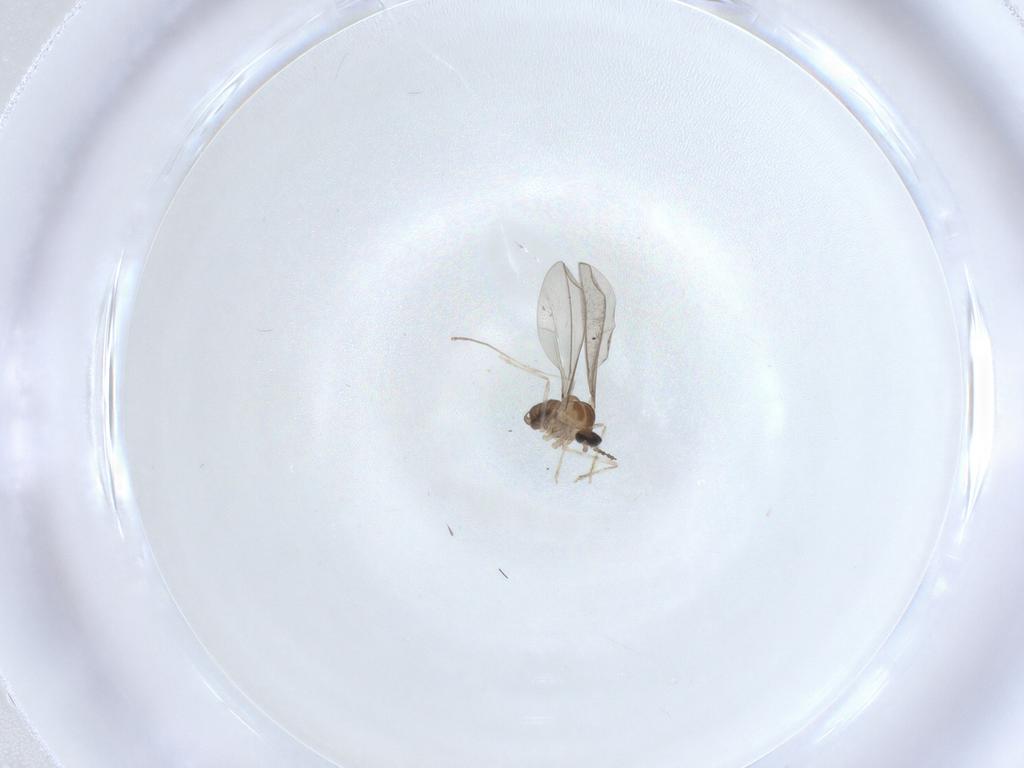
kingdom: Animalia
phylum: Arthropoda
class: Insecta
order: Diptera
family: Cecidomyiidae
